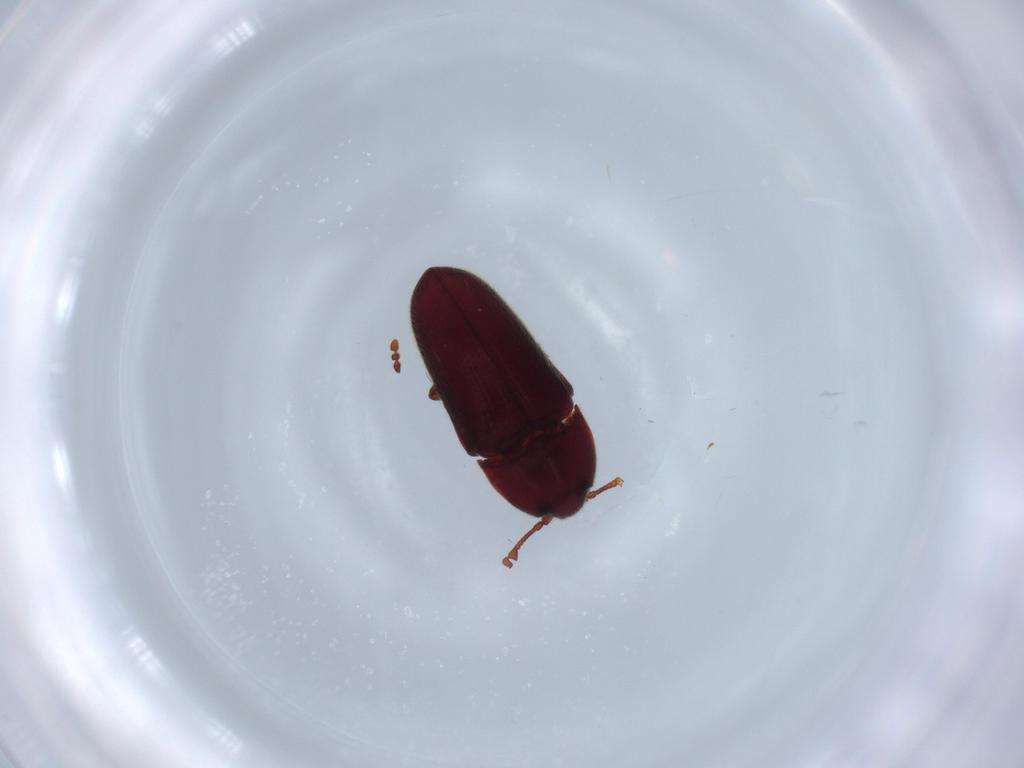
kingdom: Animalia
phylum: Arthropoda
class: Insecta
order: Coleoptera
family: Throscidae
